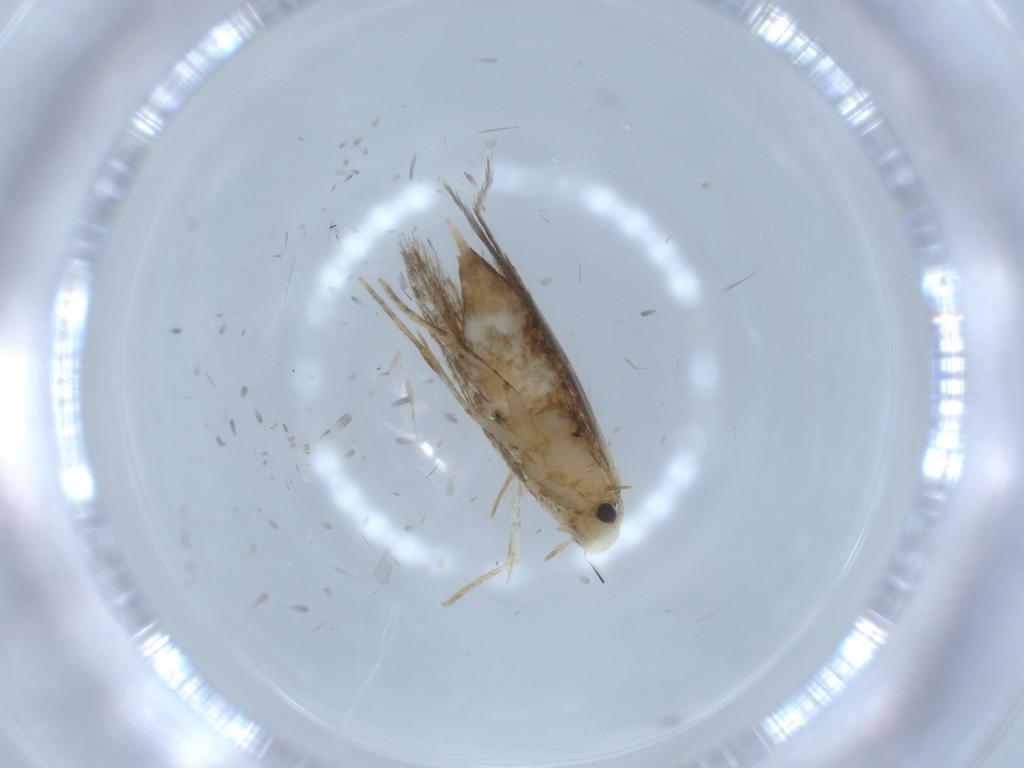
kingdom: Animalia
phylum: Arthropoda
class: Insecta
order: Lepidoptera
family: Tineidae
